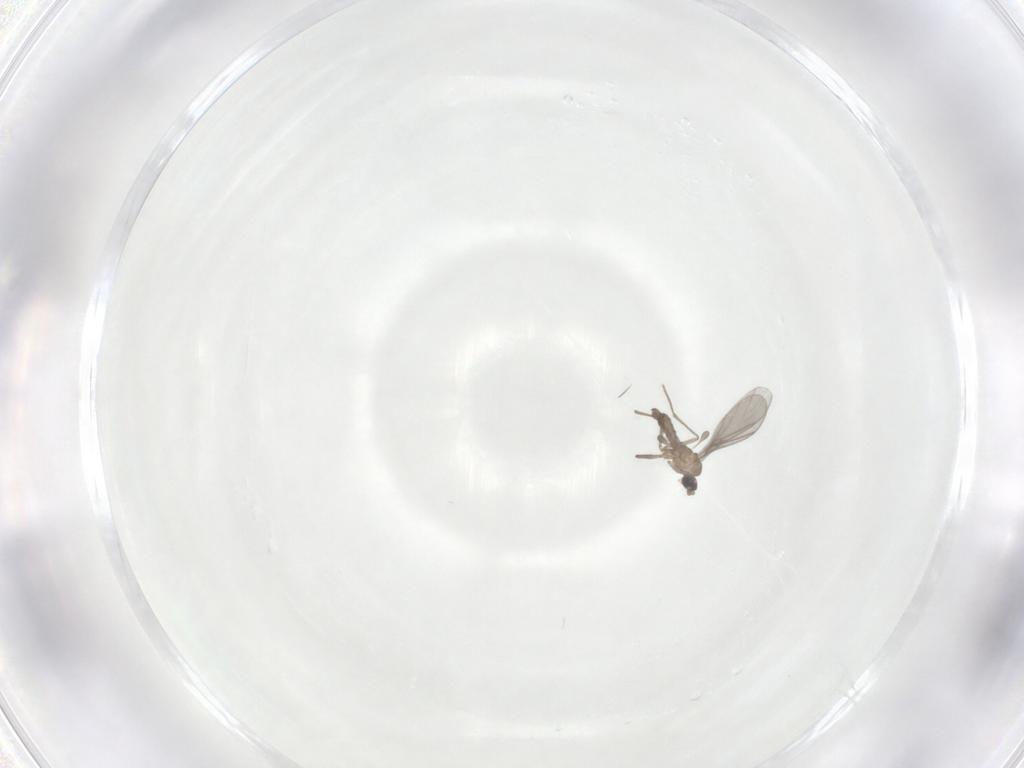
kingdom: Animalia
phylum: Arthropoda
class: Insecta
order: Diptera
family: Sciaridae
